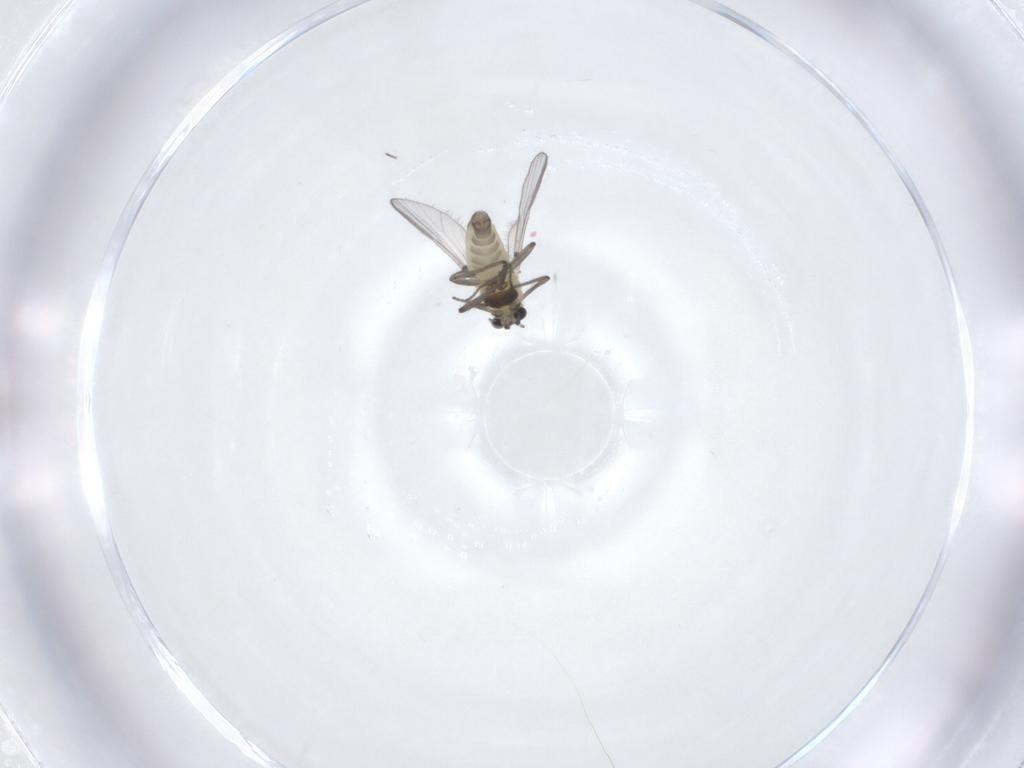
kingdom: Animalia
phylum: Arthropoda
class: Insecta
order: Diptera
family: Chironomidae
